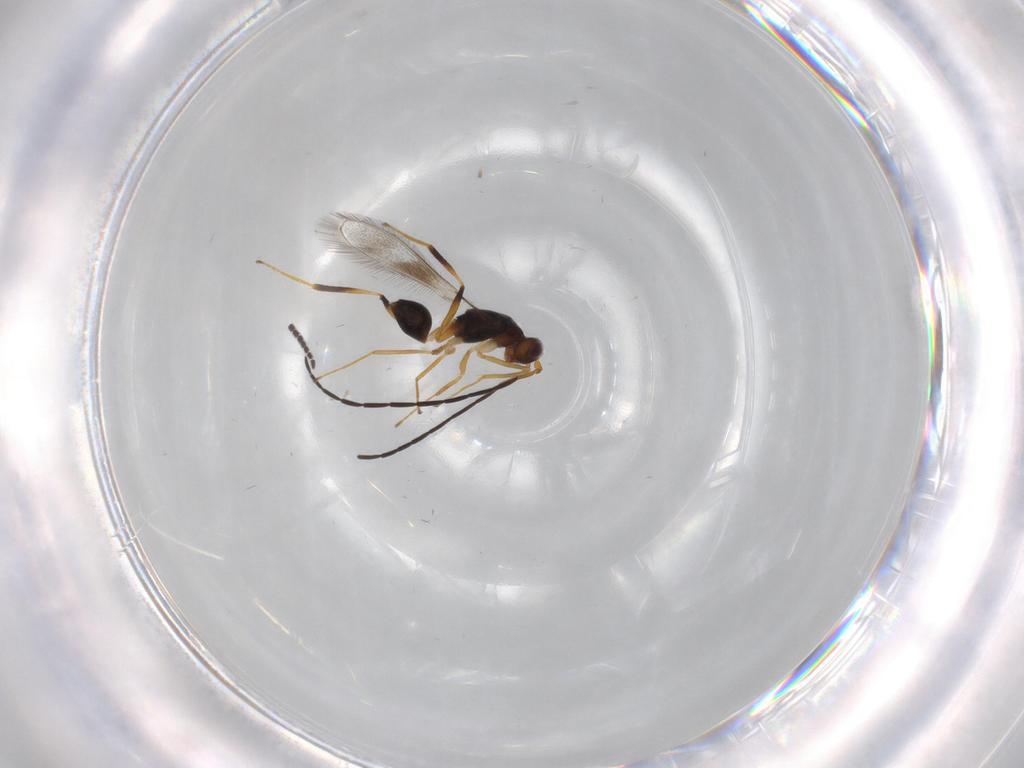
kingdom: Animalia
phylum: Arthropoda
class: Insecta
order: Hymenoptera
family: Mymaridae
